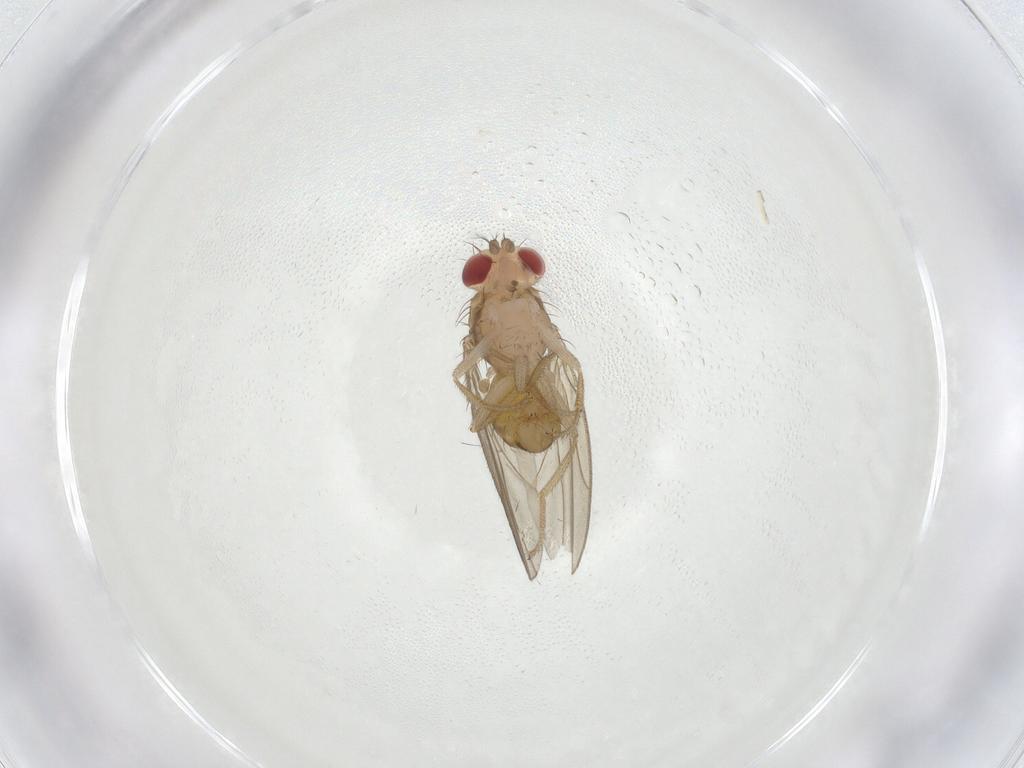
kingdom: Animalia
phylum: Arthropoda
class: Insecta
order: Diptera
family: Drosophilidae
